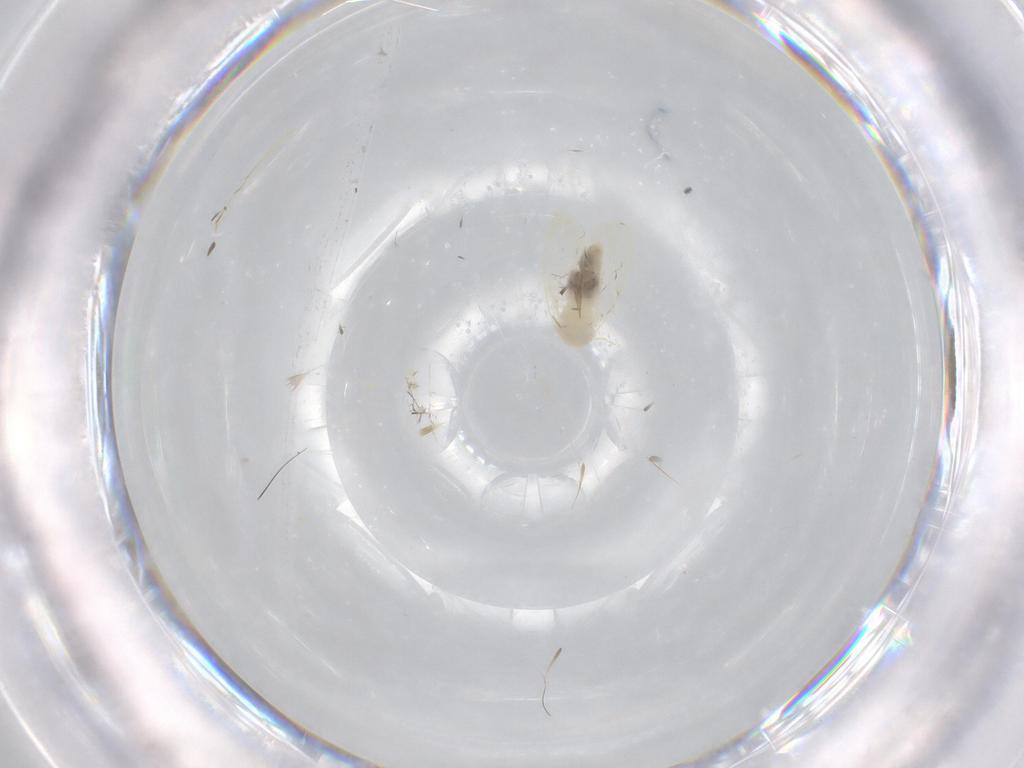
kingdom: Animalia
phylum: Arthropoda
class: Insecta
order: Hemiptera
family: Aleyrodidae
